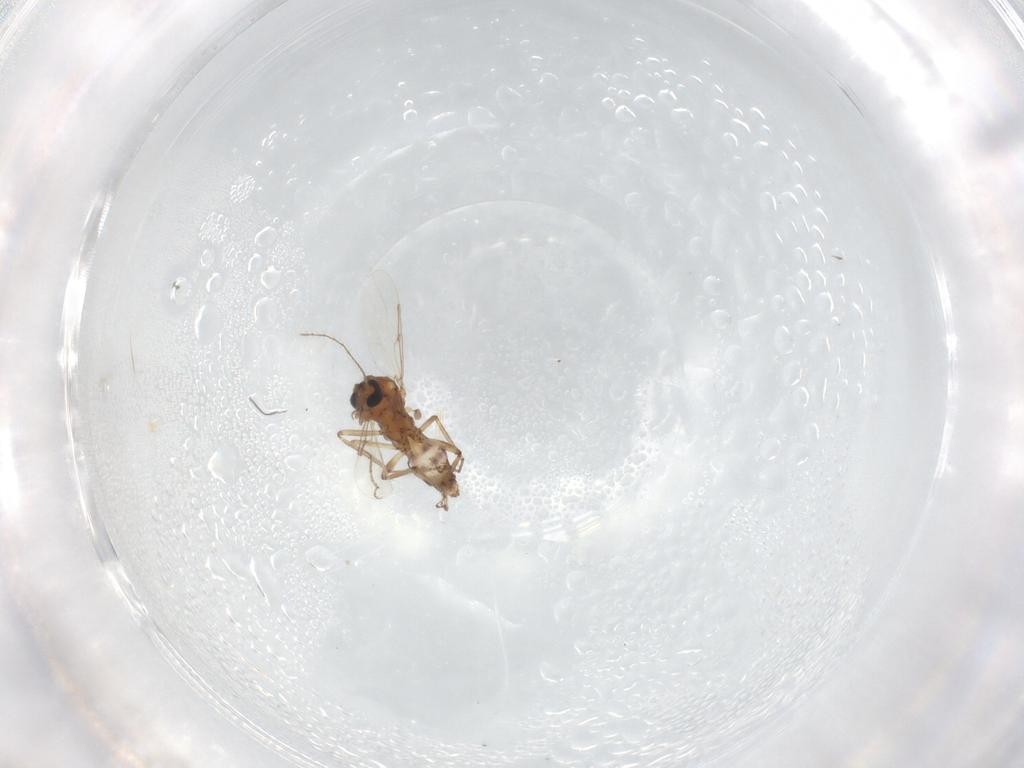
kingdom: Animalia
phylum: Arthropoda
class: Insecta
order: Diptera
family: Ceratopogonidae
